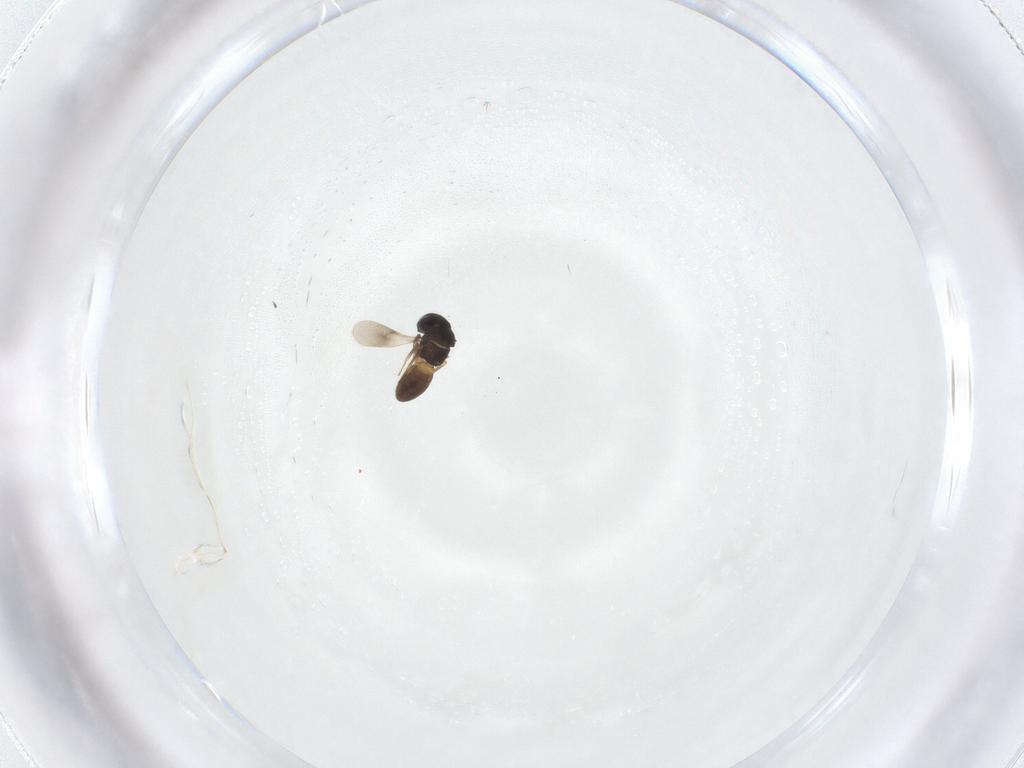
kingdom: Animalia
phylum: Arthropoda
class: Insecta
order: Hymenoptera
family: Scelionidae
